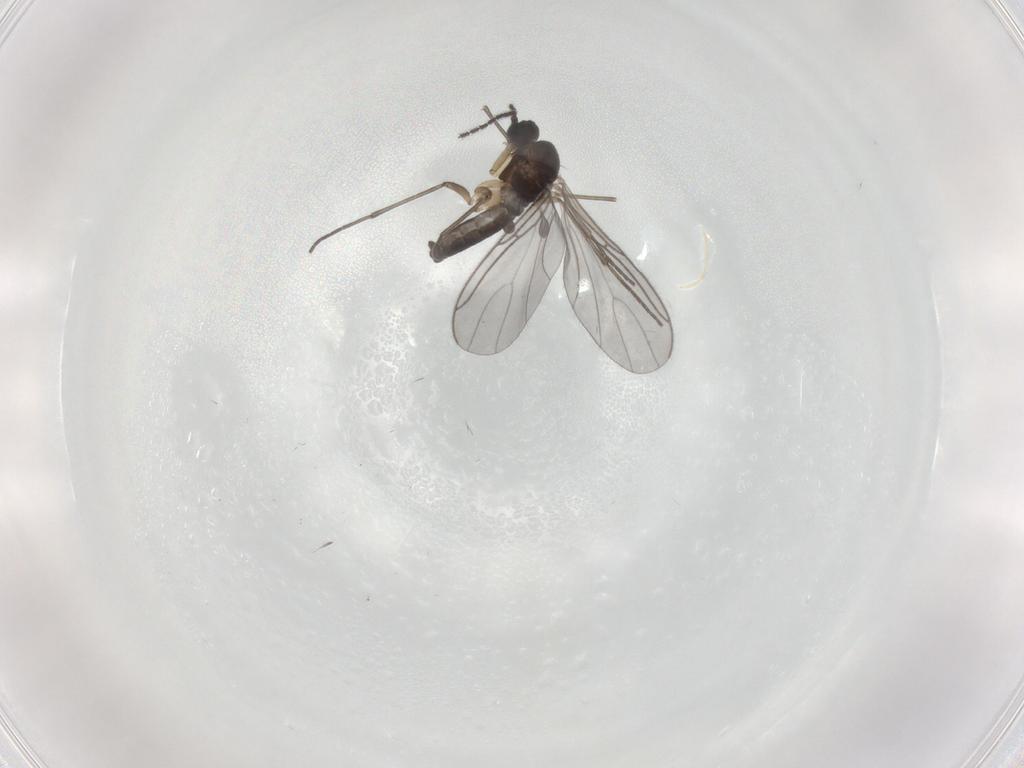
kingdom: Animalia
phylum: Arthropoda
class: Insecta
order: Diptera
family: Sciaridae
